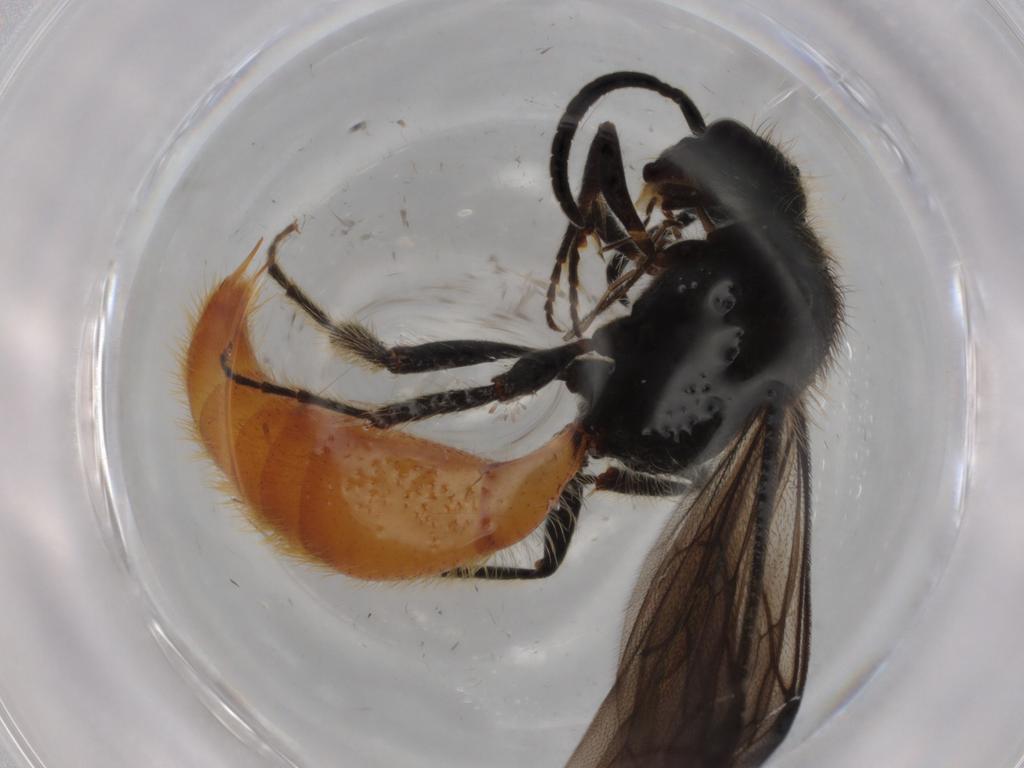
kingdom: Animalia
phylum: Arthropoda
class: Insecta
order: Hymenoptera
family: Mutillidae
